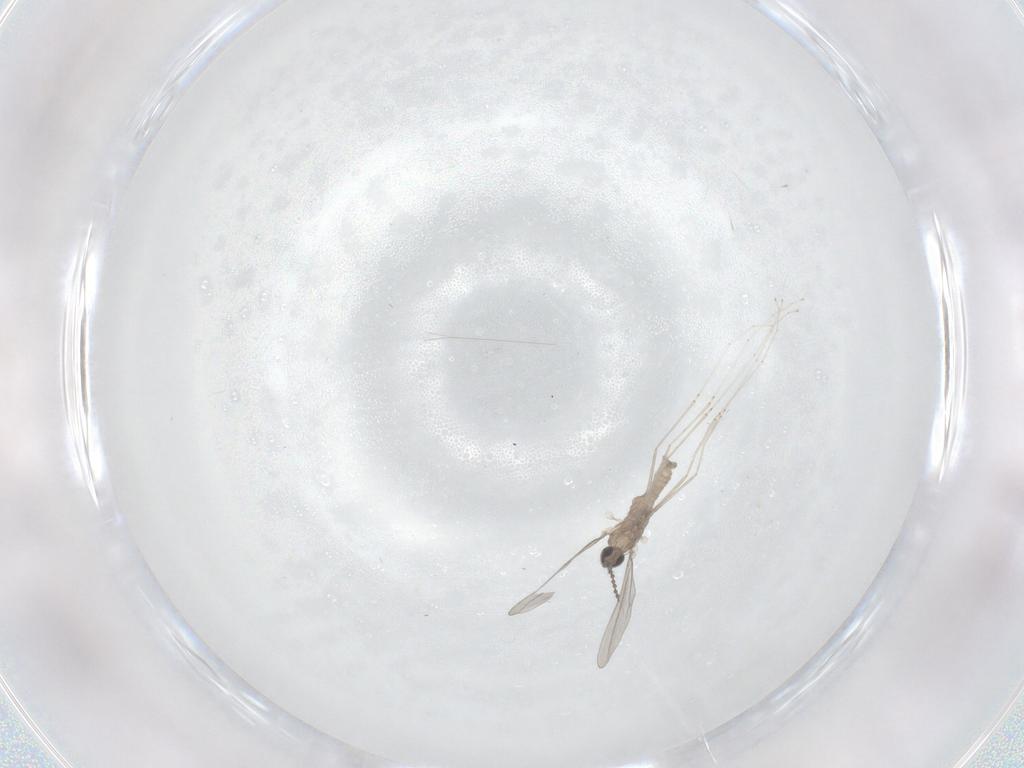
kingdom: Animalia
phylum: Arthropoda
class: Insecta
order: Diptera
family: Cecidomyiidae
